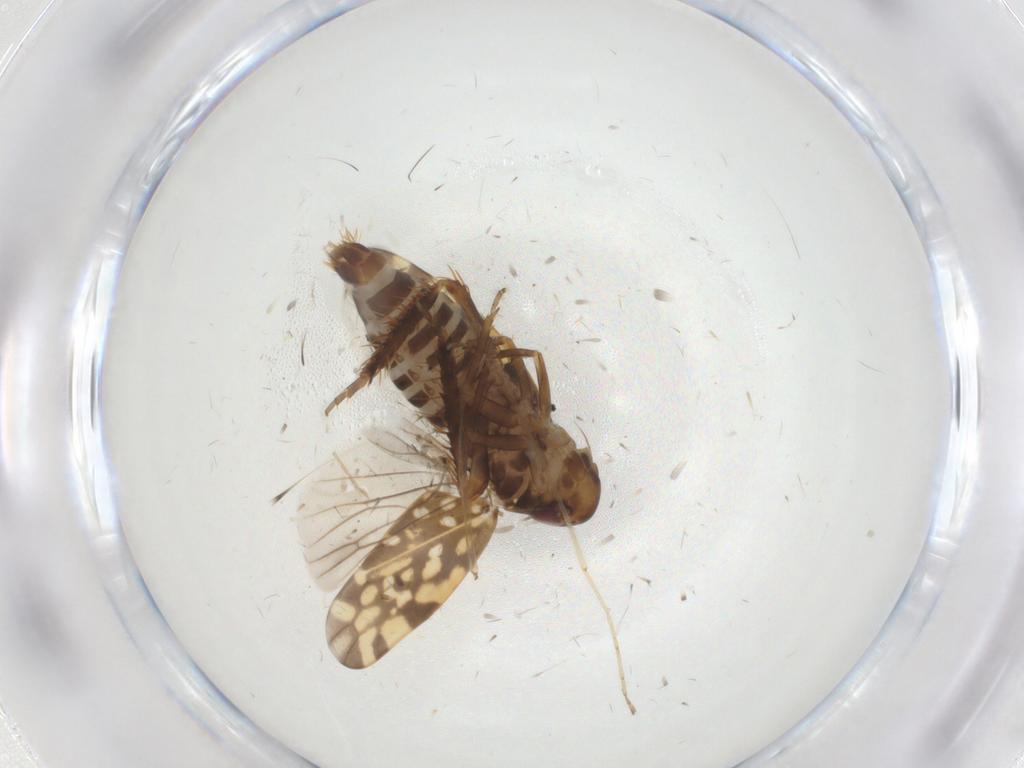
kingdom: Animalia
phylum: Arthropoda
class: Insecta
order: Hemiptera
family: Cicadellidae
